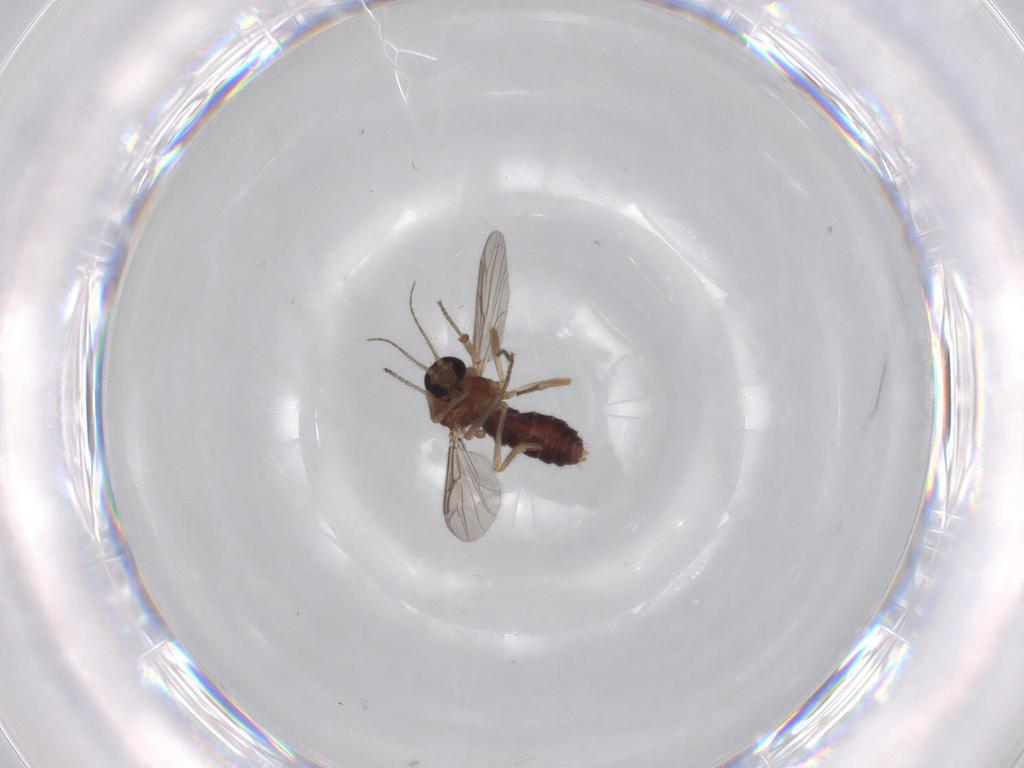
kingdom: Animalia
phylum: Arthropoda
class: Insecta
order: Diptera
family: Ceratopogonidae
